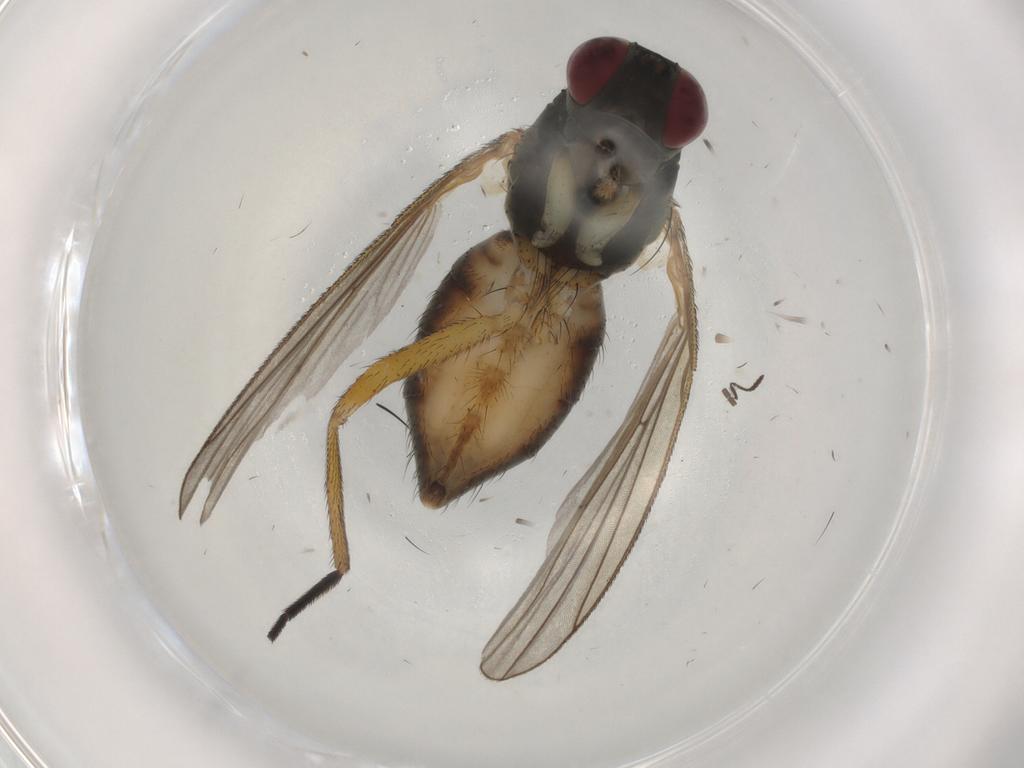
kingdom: Animalia
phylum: Arthropoda
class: Insecta
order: Diptera
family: Muscidae
